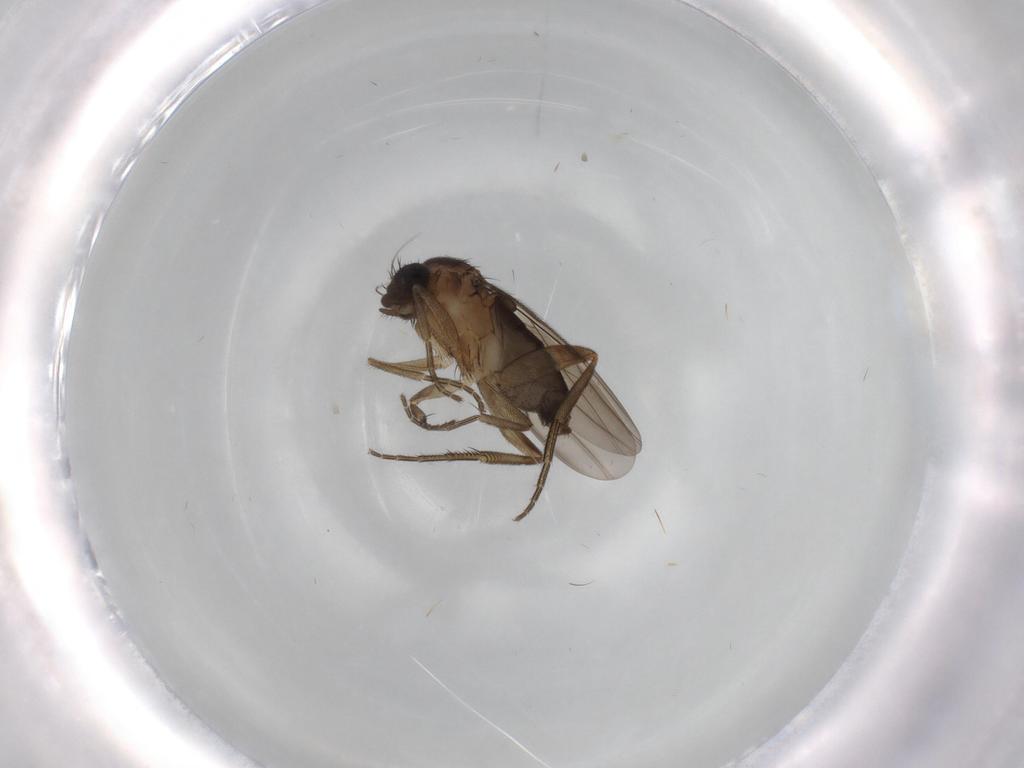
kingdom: Animalia
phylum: Arthropoda
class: Insecta
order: Diptera
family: Phoridae
